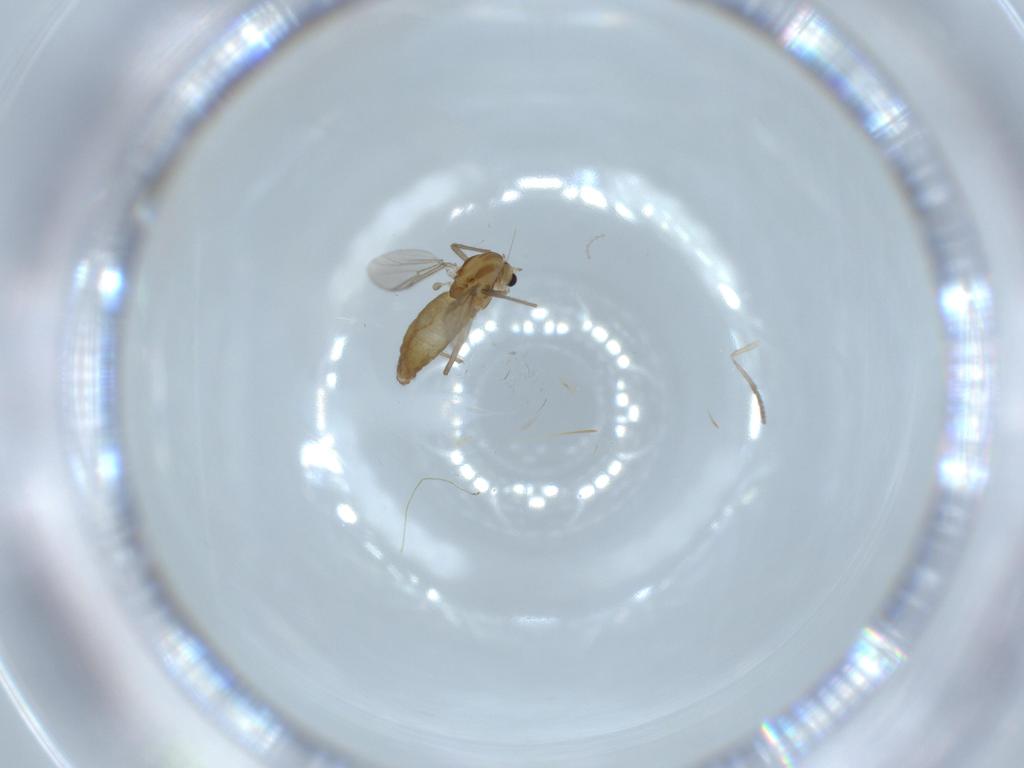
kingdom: Animalia
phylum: Arthropoda
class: Insecta
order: Diptera
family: Chironomidae
